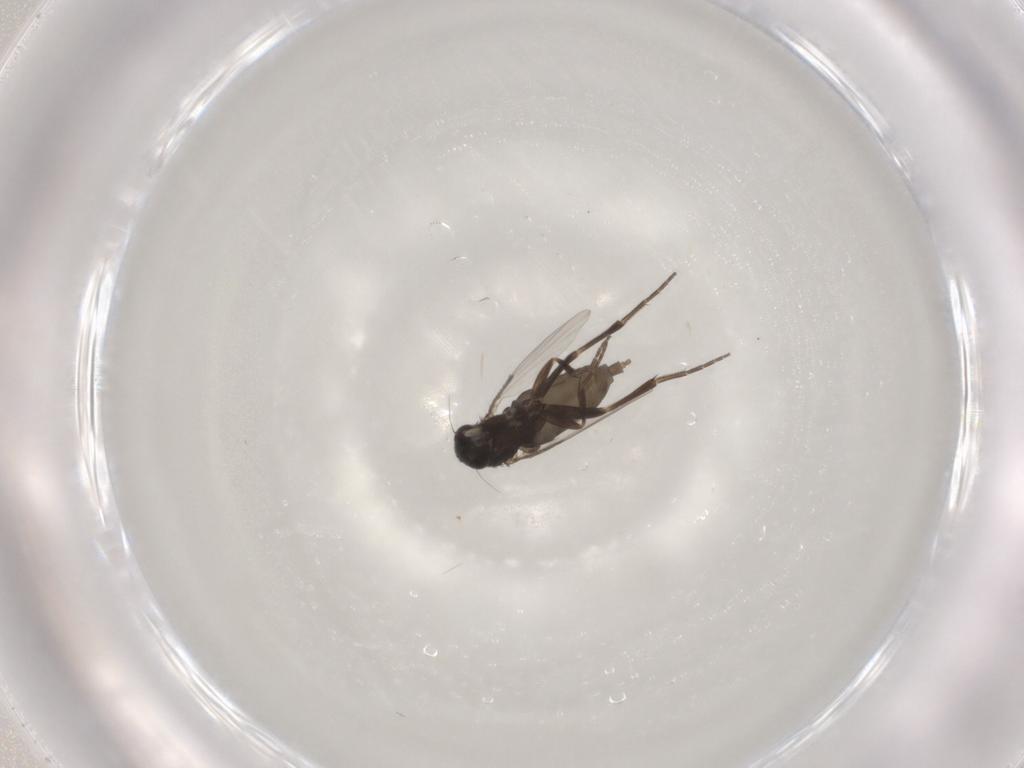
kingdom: Animalia
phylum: Arthropoda
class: Insecta
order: Diptera
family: Phoridae
